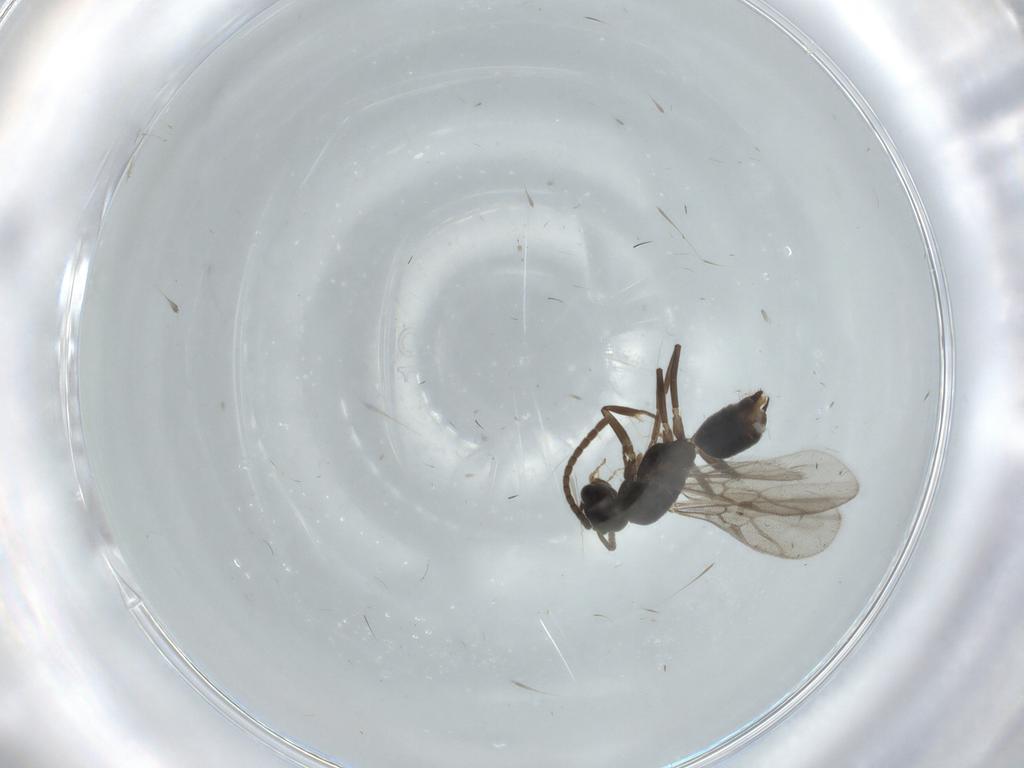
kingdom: Animalia
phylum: Arthropoda
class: Insecta
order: Hymenoptera
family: Formicidae
